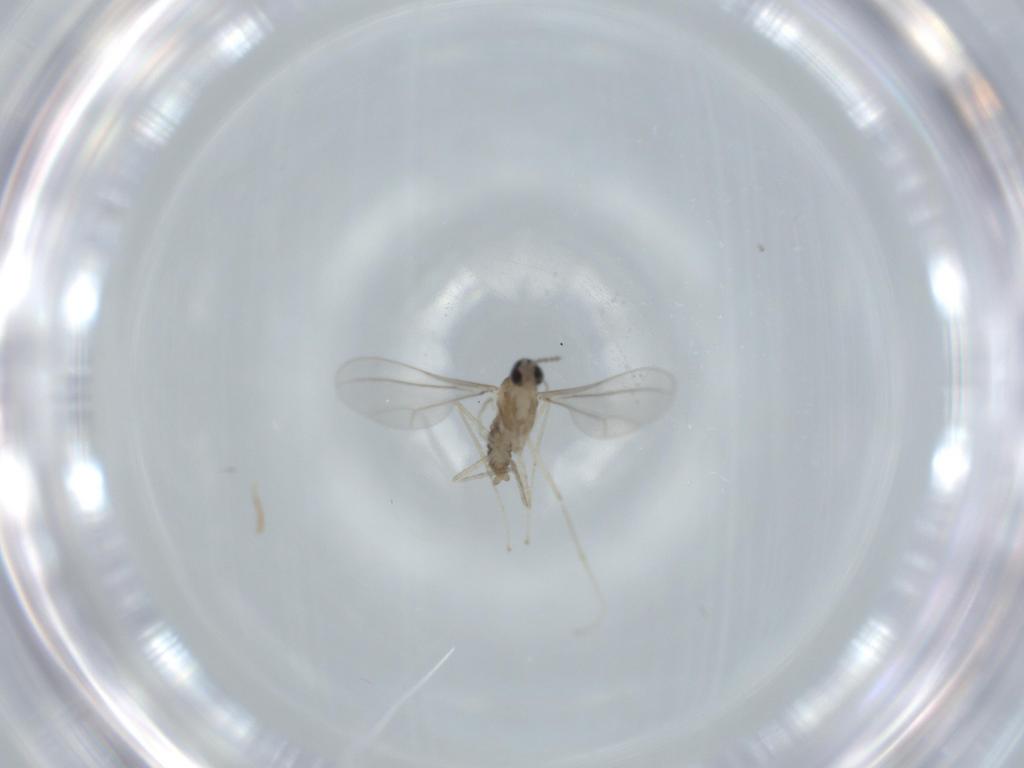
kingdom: Animalia
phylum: Arthropoda
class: Insecta
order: Diptera
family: Cecidomyiidae
